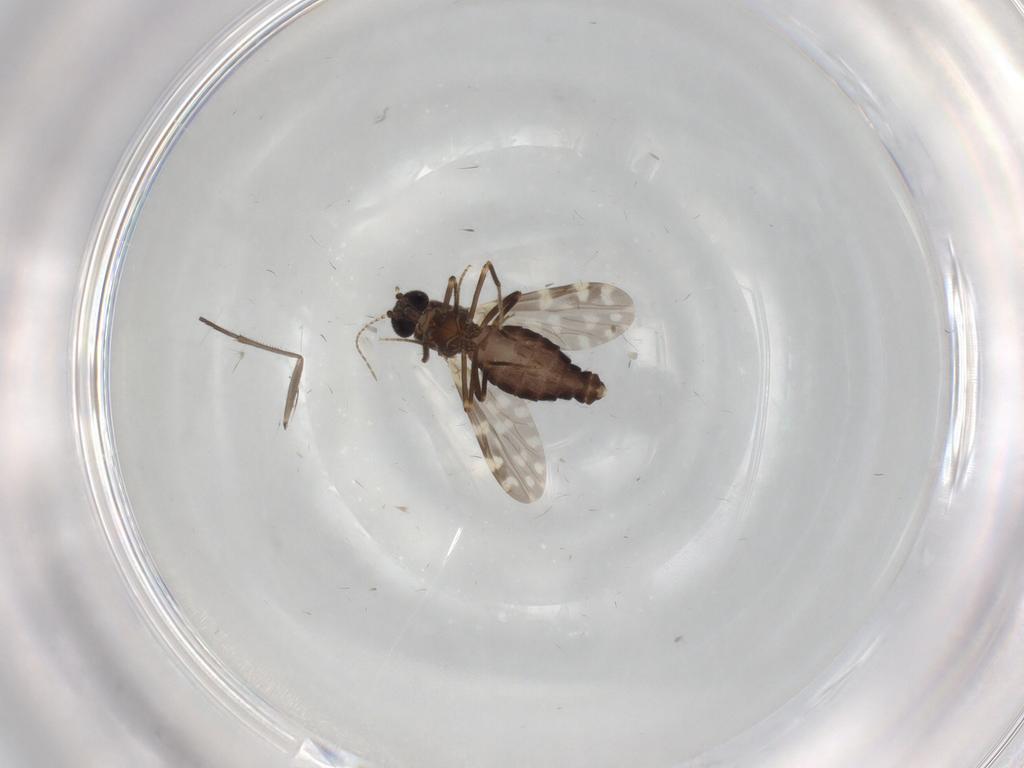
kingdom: Animalia
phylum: Arthropoda
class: Insecta
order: Diptera
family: Ceratopogonidae
